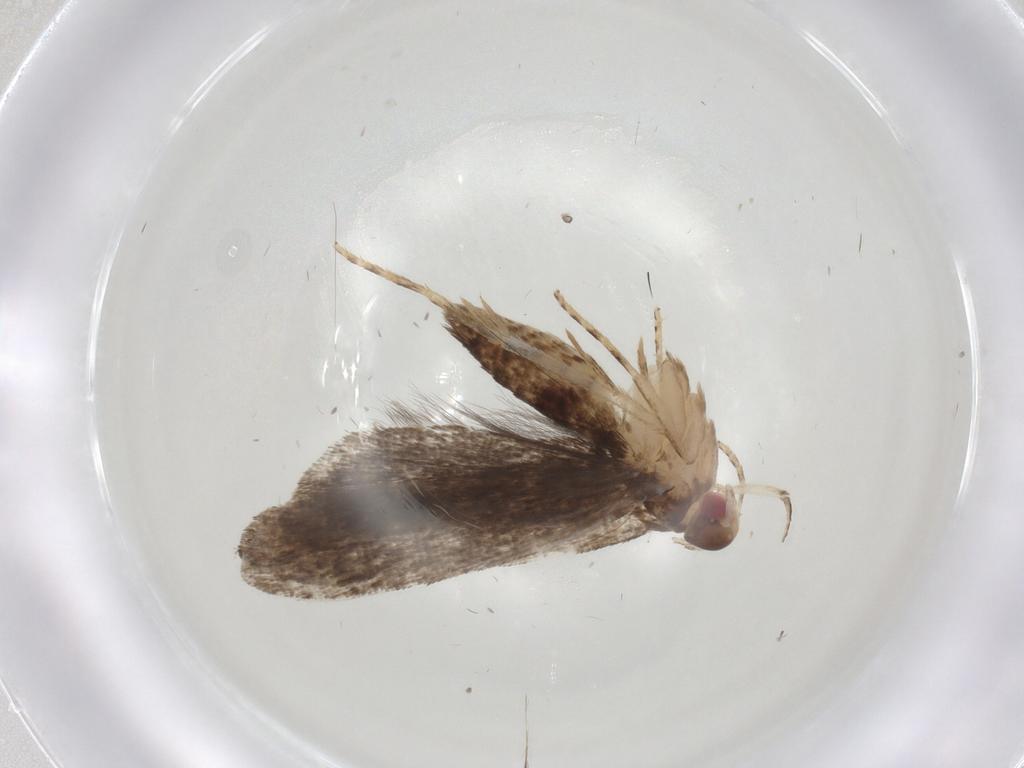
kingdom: Animalia
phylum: Arthropoda
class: Insecta
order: Lepidoptera
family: Gelechiidae
